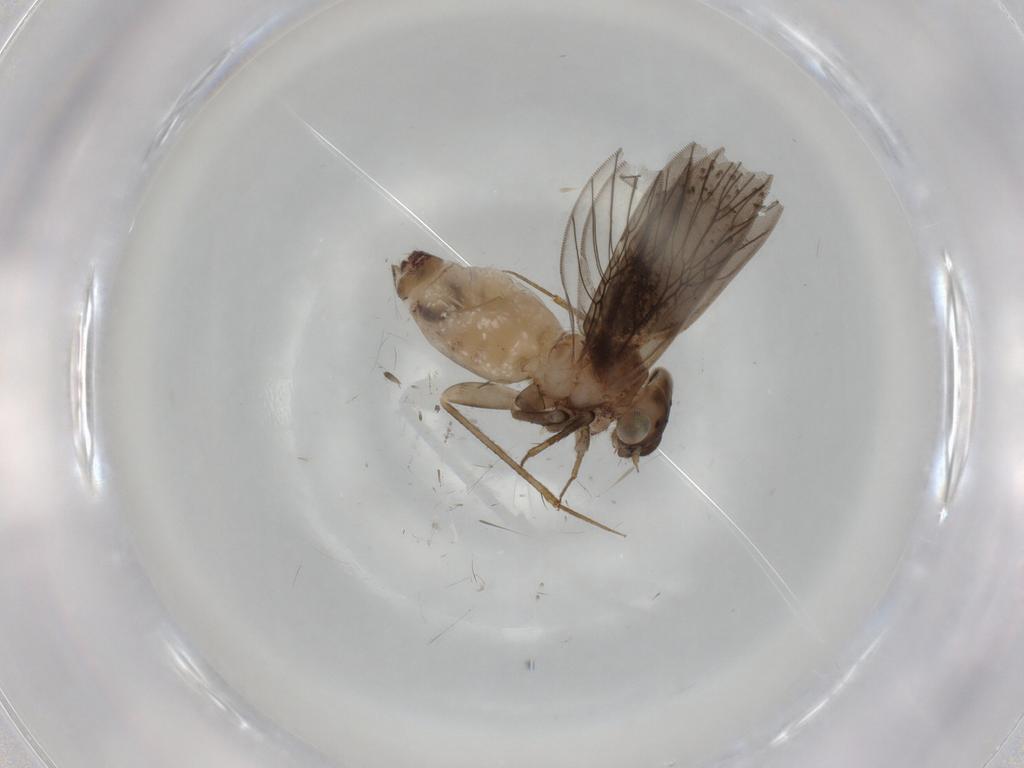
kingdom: Animalia
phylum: Arthropoda
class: Insecta
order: Psocodea
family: Lepidopsocidae
